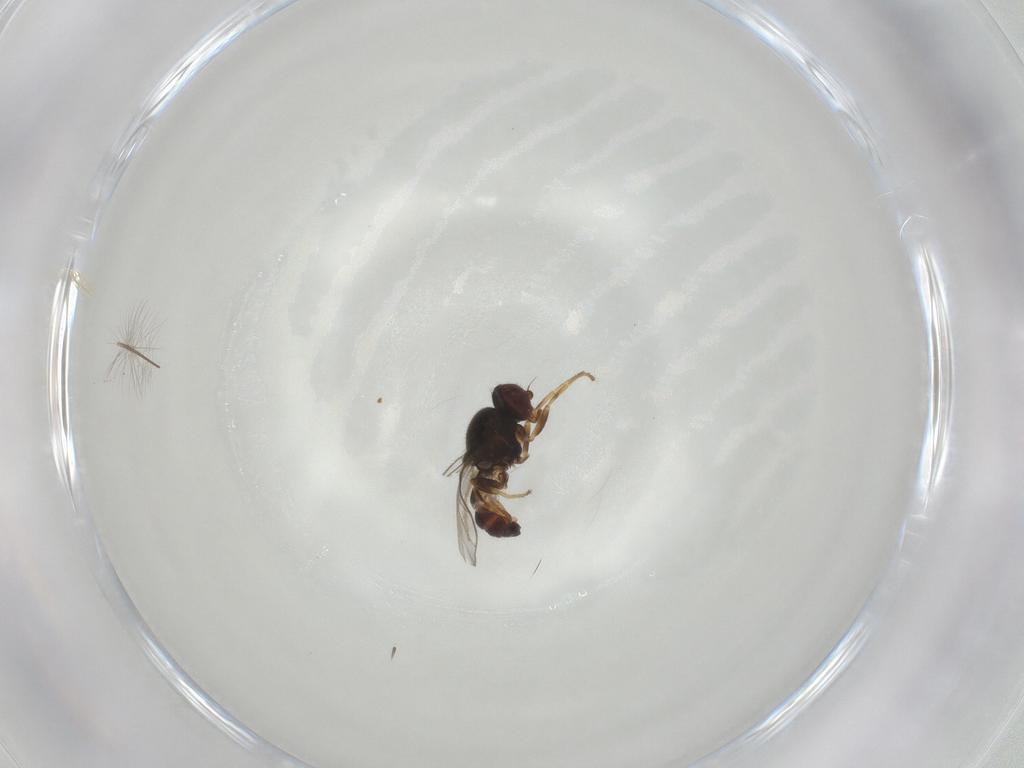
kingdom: Animalia
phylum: Arthropoda
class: Insecta
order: Diptera
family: Chloropidae
